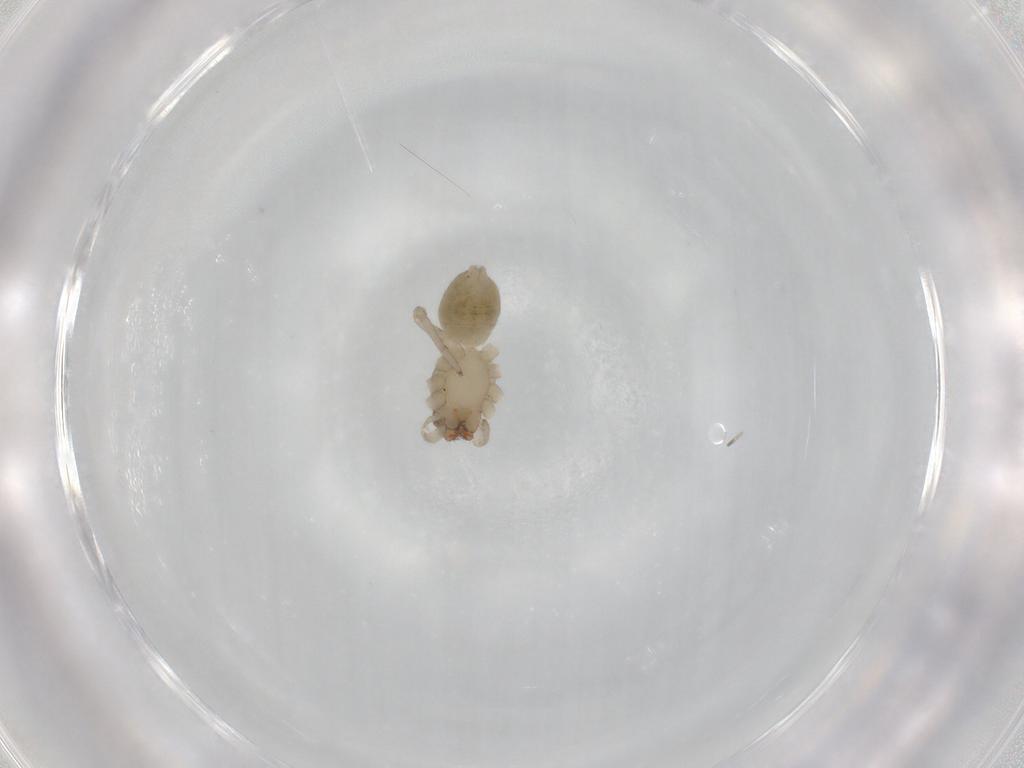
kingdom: Animalia
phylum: Arthropoda
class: Arachnida
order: Araneae
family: Trachelidae
